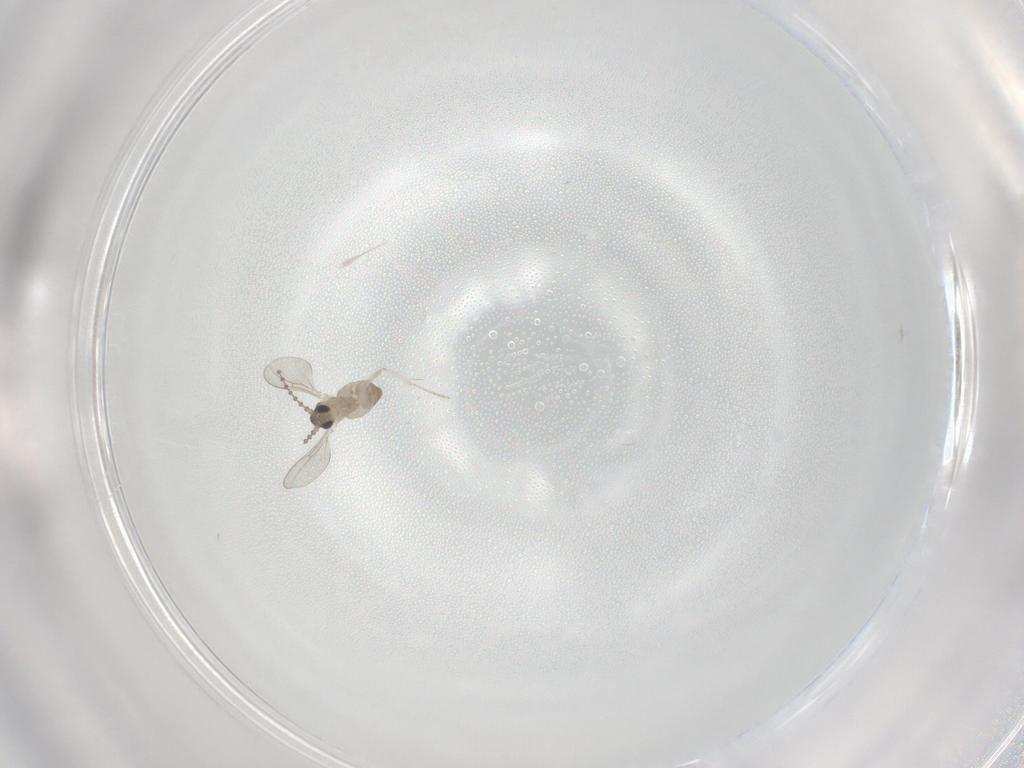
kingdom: Animalia
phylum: Arthropoda
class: Insecta
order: Diptera
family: Cecidomyiidae
